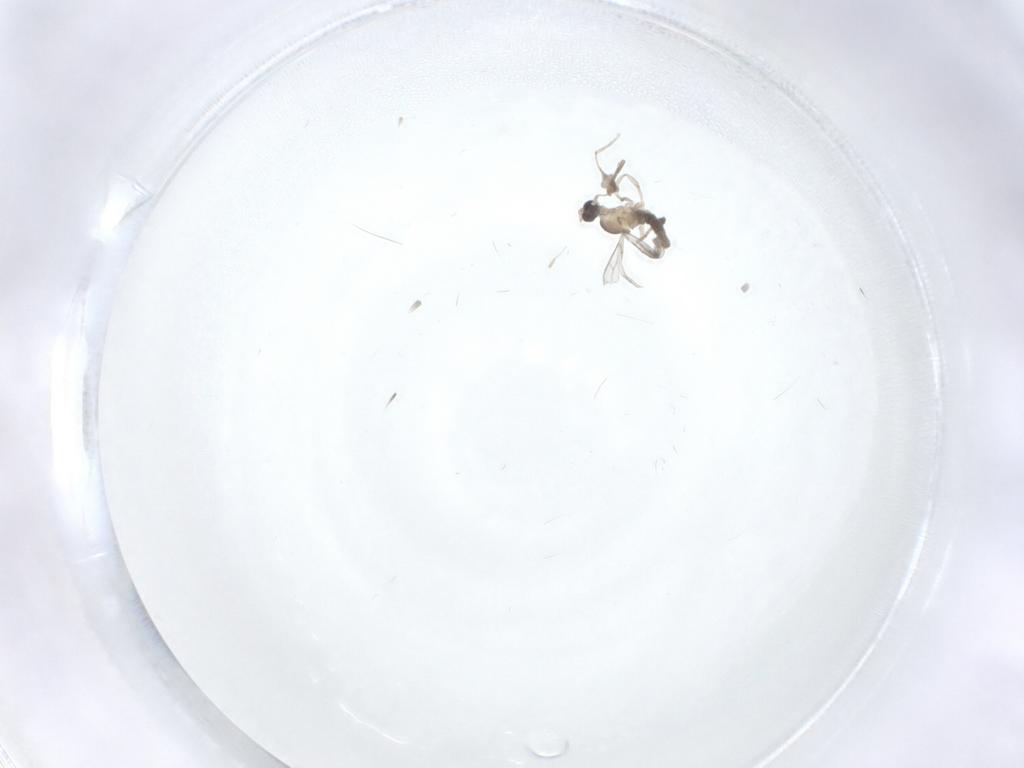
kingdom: Animalia
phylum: Arthropoda
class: Insecta
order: Diptera
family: Cecidomyiidae
